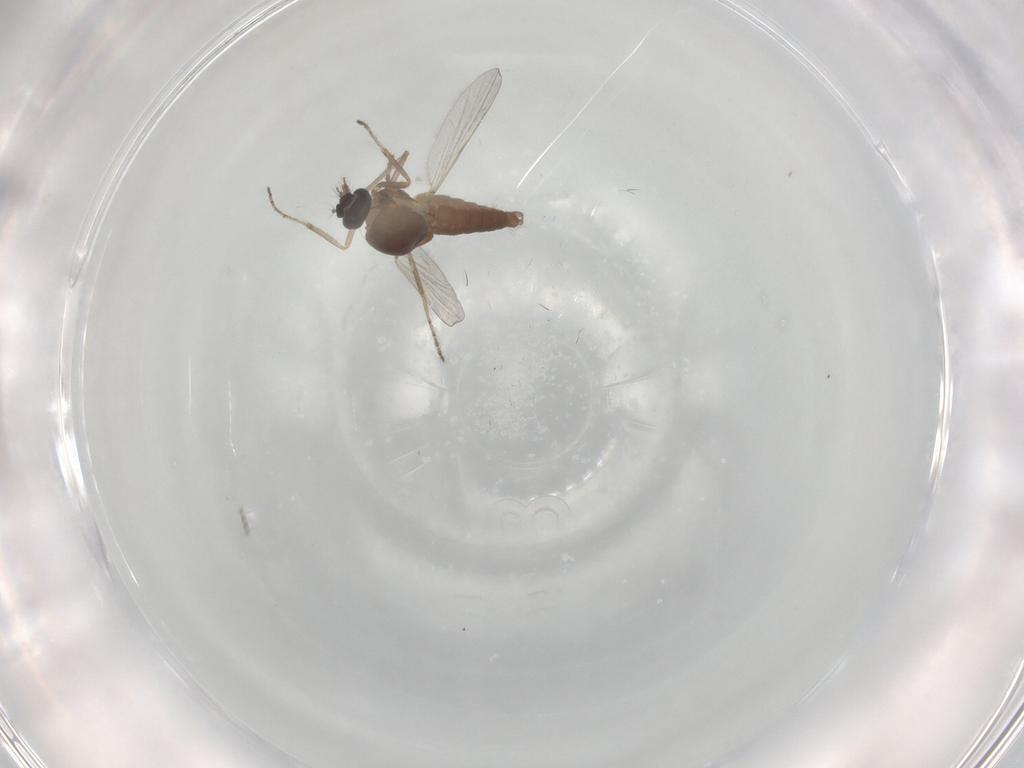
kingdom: Animalia
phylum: Arthropoda
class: Insecta
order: Diptera
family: Ceratopogonidae
